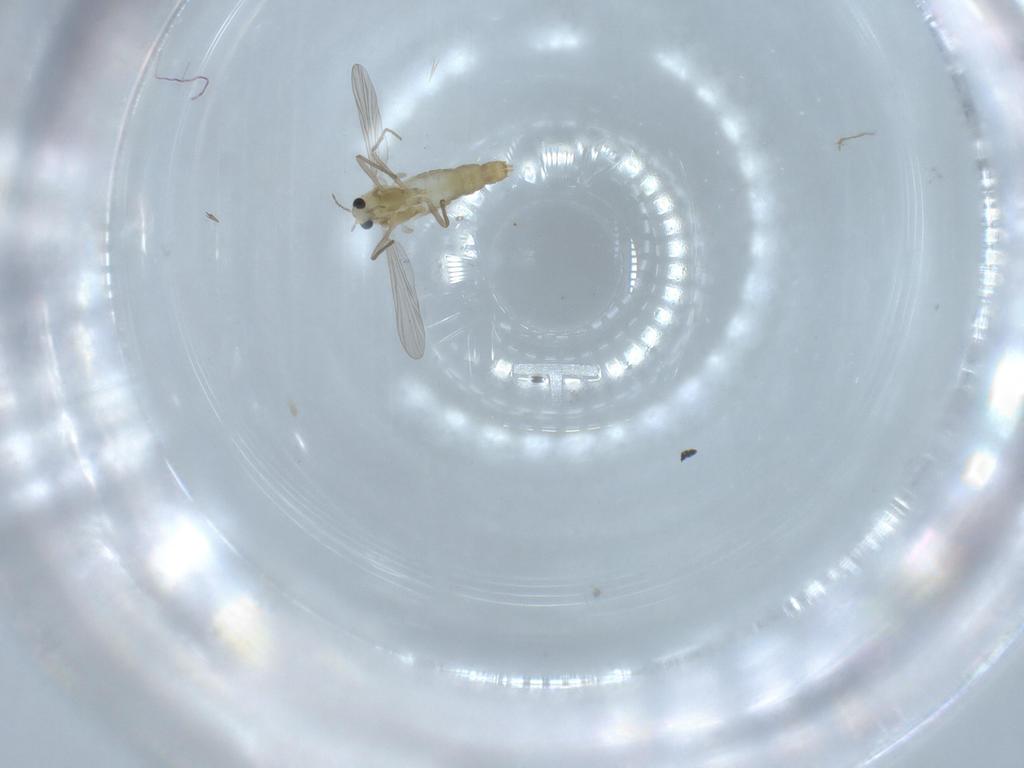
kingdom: Animalia
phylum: Arthropoda
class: Insecta
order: Diptera
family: Chironomidae
